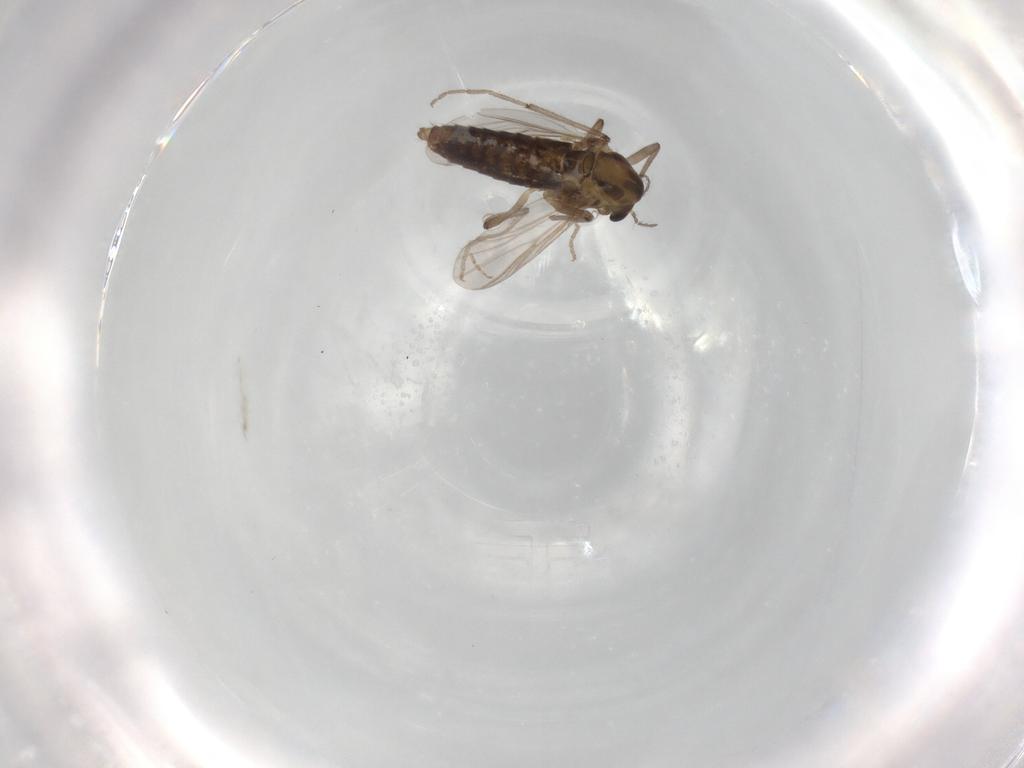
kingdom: Animalia
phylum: Arthropoda
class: Insecta
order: Diptera
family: Chironomidae
